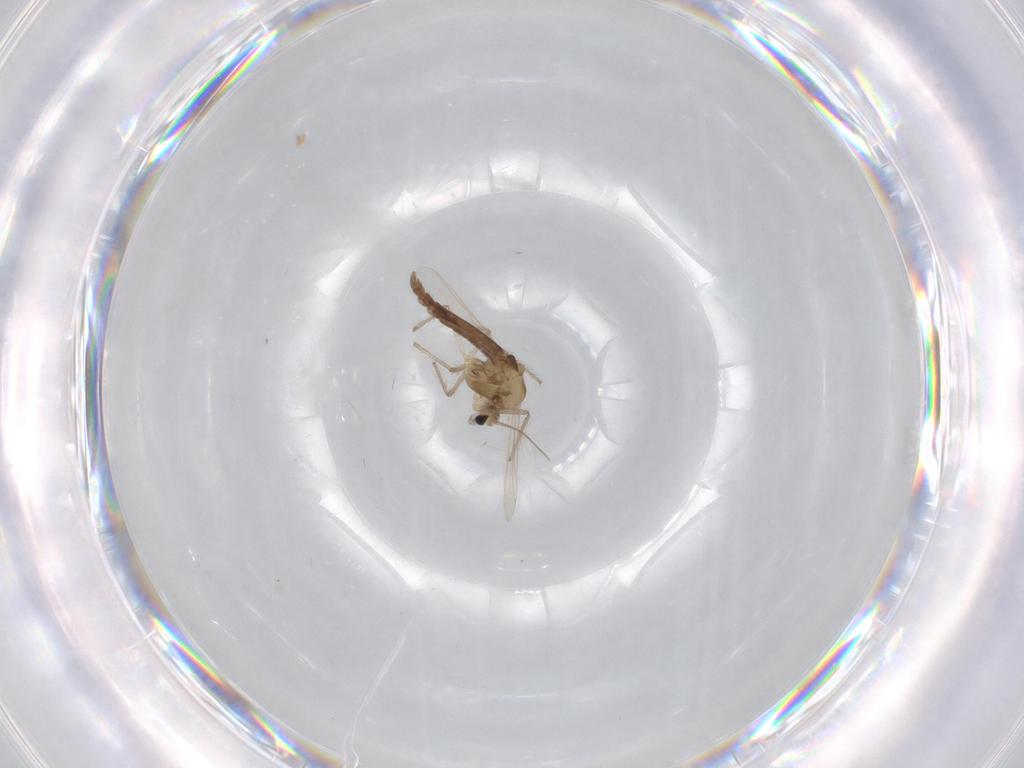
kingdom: Animalia
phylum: Arthropoda
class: Insecta
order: Diptera
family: Chironomidae
